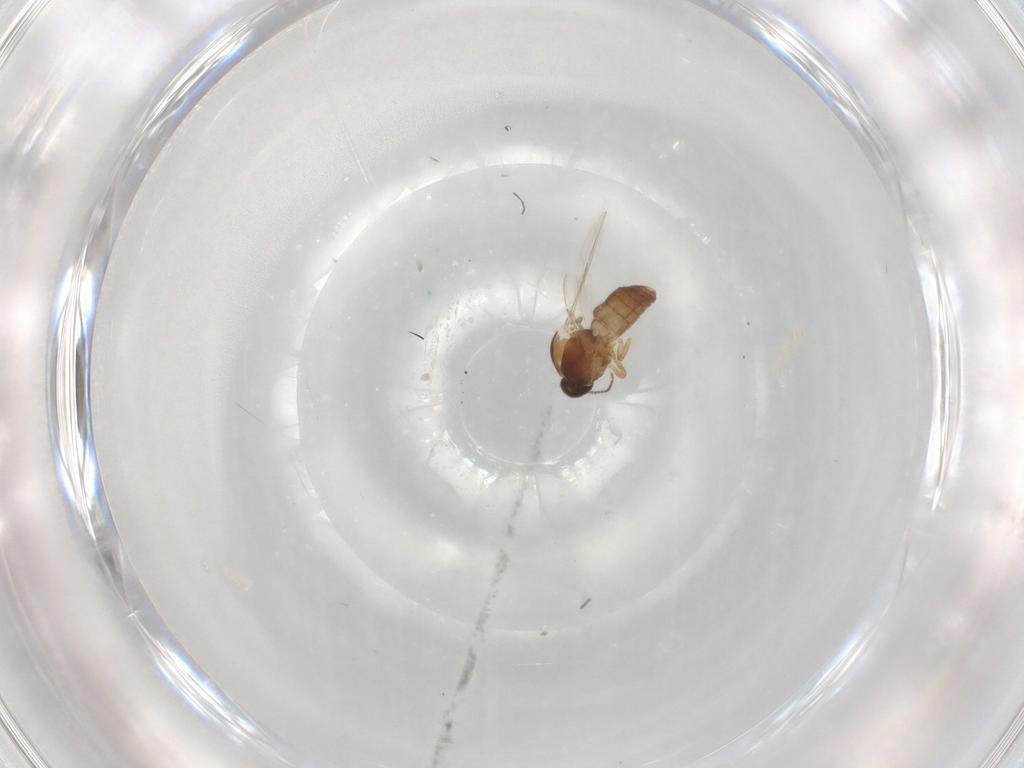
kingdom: Animalia
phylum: Arthropoda
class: Insecta
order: Diptera
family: Ceratopogonidae
